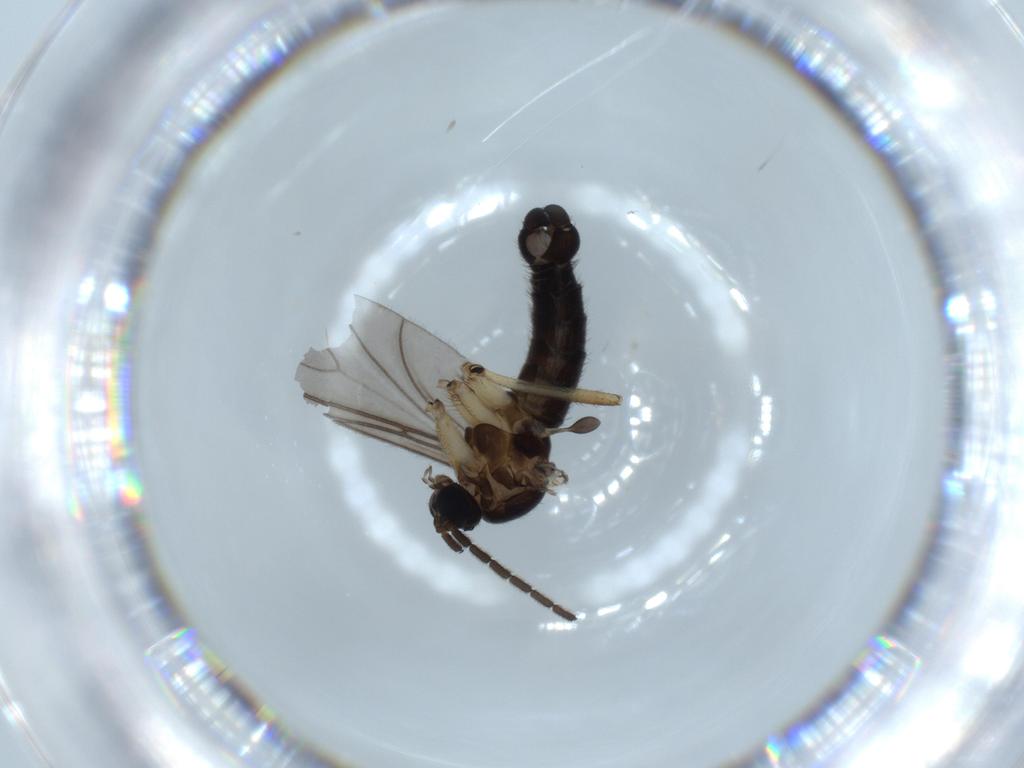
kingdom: Animalia
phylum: Arthropoda
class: Insecta
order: Diptera
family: Sciaridae
